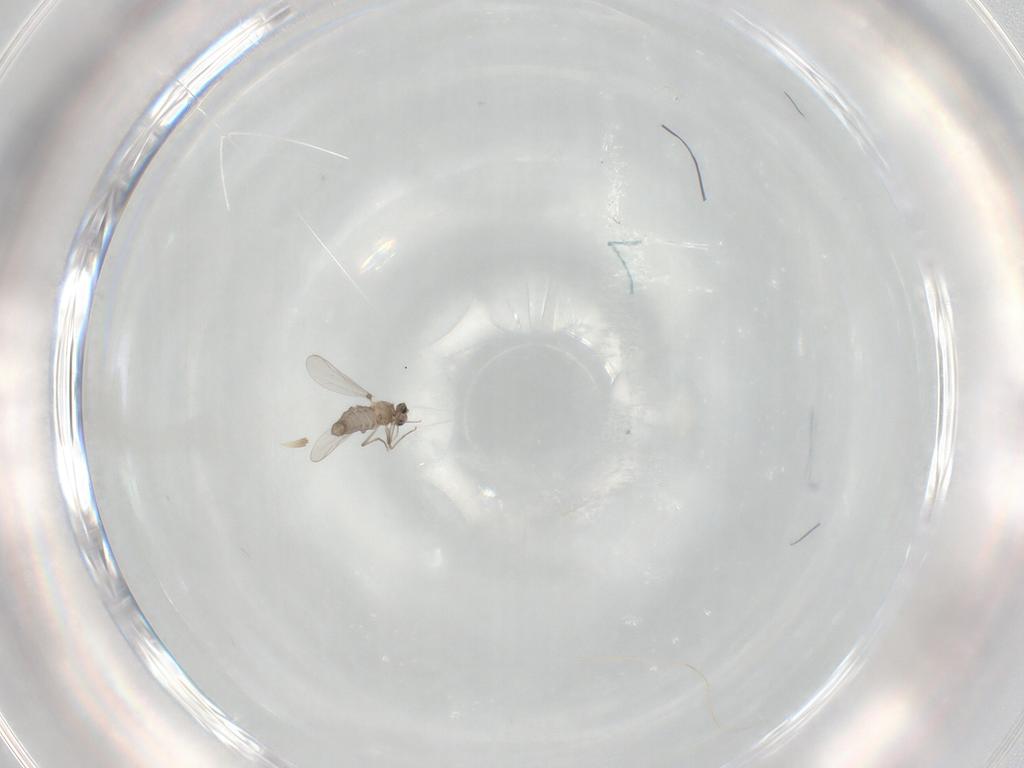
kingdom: Animalia
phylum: Arthropoda
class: Insecta
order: Diptera
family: Chironomidae
